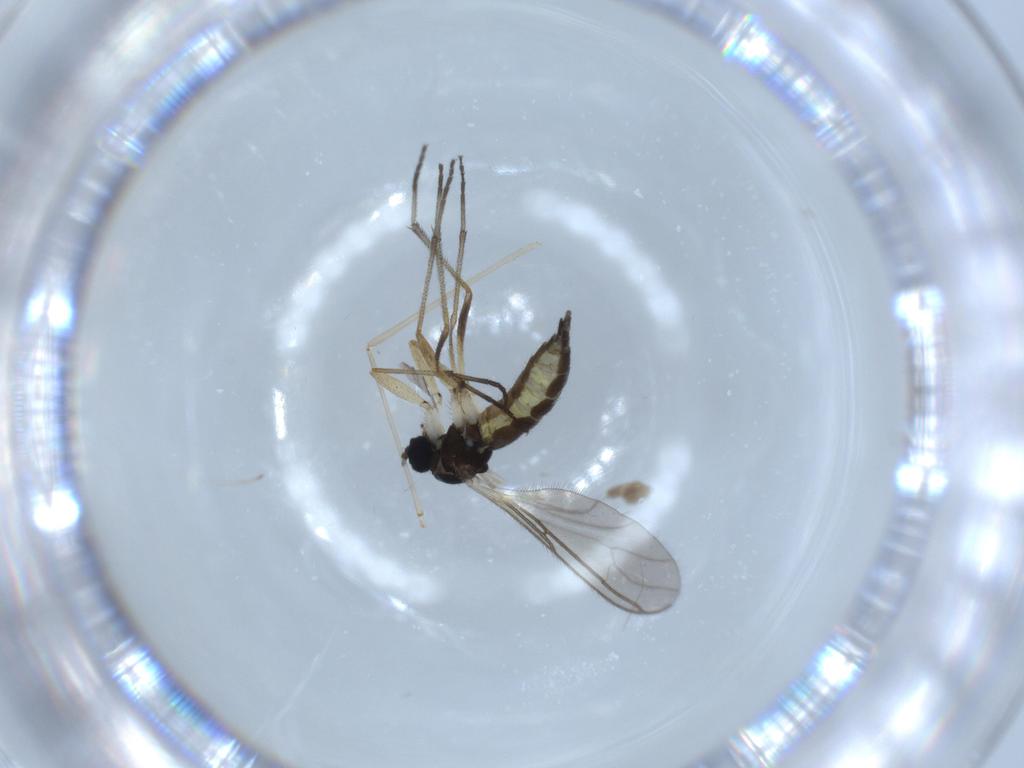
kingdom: Animalia
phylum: Arthropoda
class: Insecta
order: Diptera
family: Sciaridae
